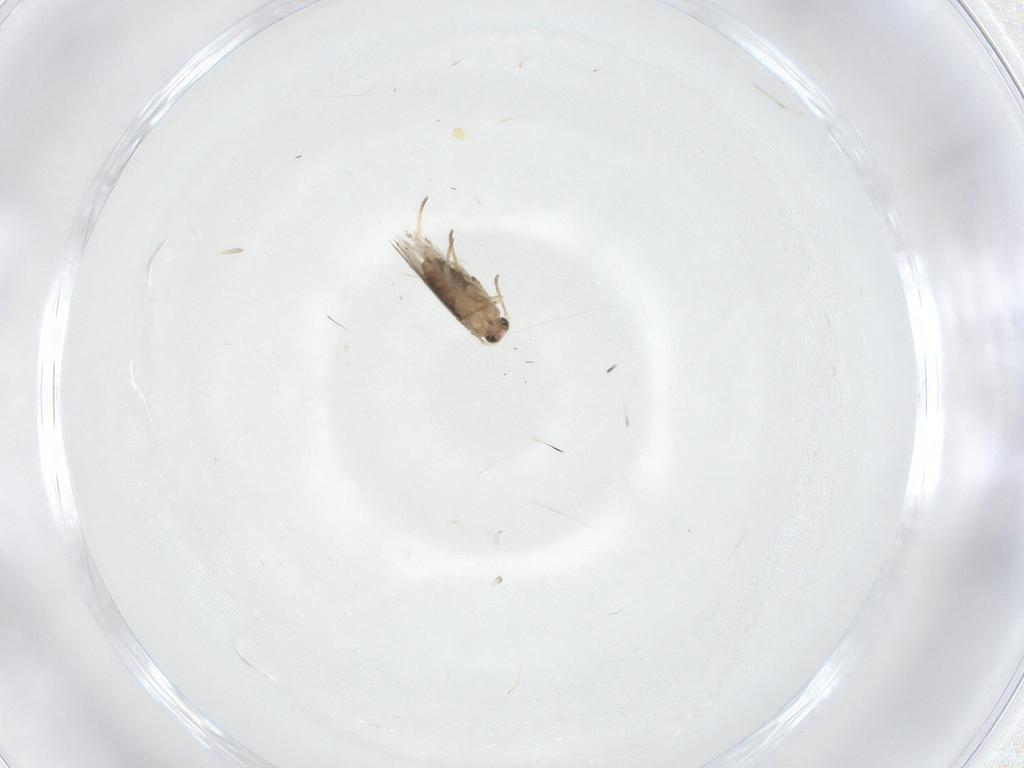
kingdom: Animalia
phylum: Arthropoda
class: Insecta
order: Lepidoptera
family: Nepticulidae
